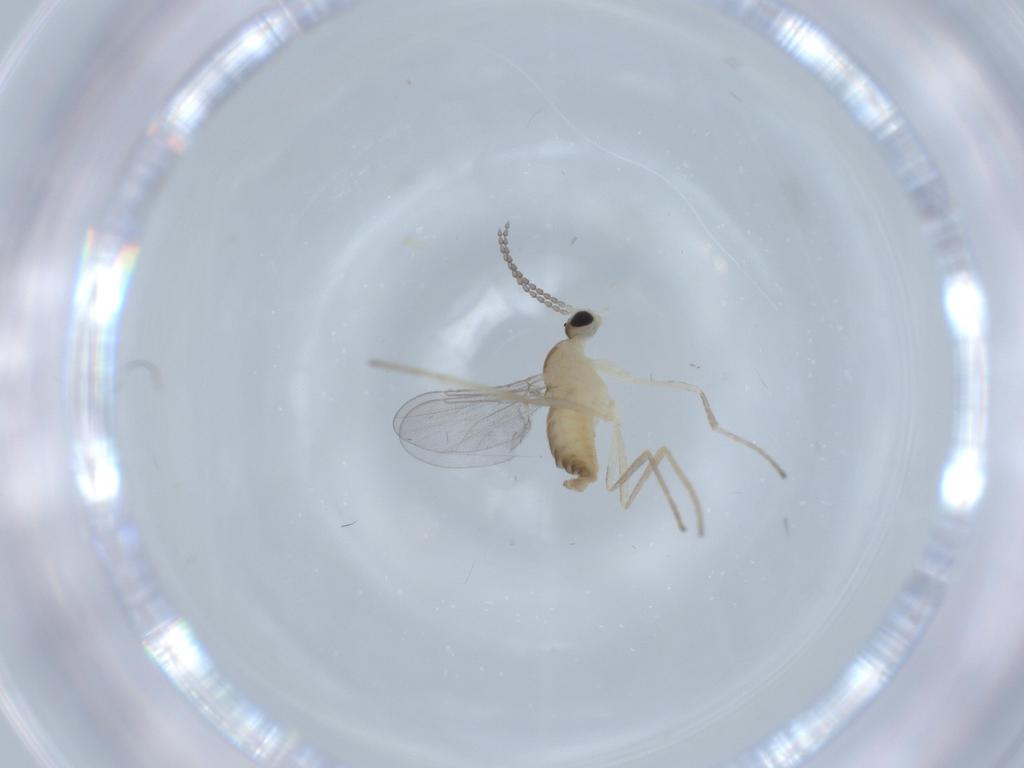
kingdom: Animalia
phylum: Arthropoda
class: Insecta
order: Diptera
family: Cecidomyiidae
